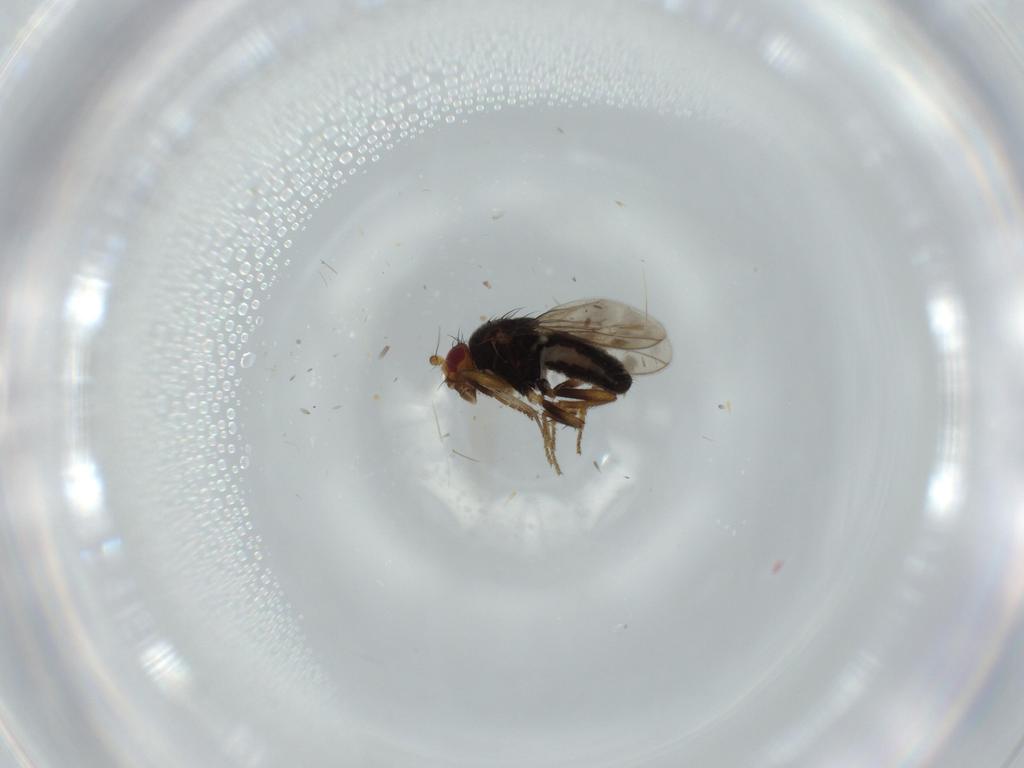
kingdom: Animalia
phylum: Arthropoda
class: Insecta
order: Diptera
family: Sphaeroceridae
